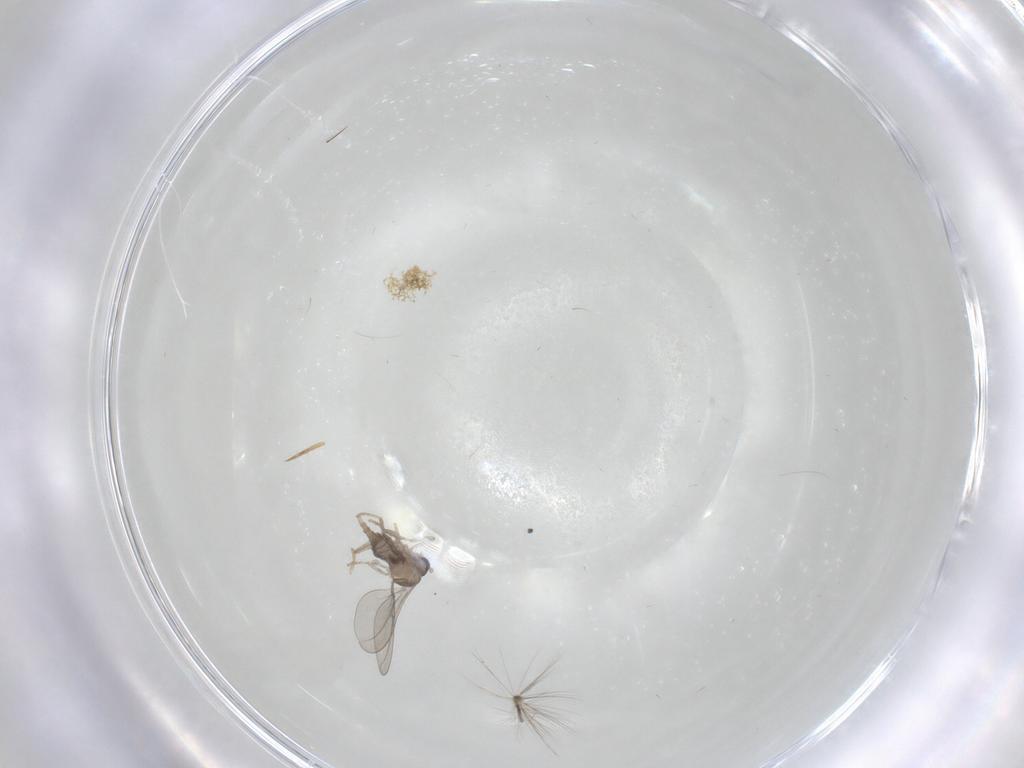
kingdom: Animalia
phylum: Arthropoda
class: Insecta
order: Diptera
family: Chironomidae
